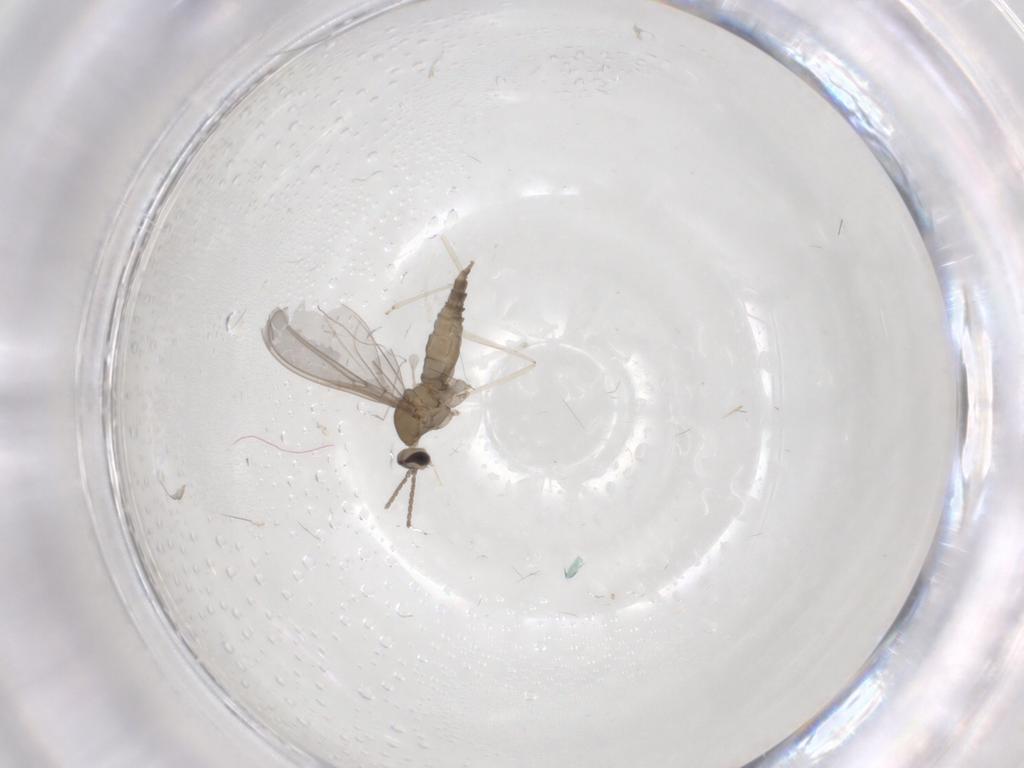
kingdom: Animalia
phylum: Arthropoda
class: Insecta
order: Diptera
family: Cecidomyiidae
